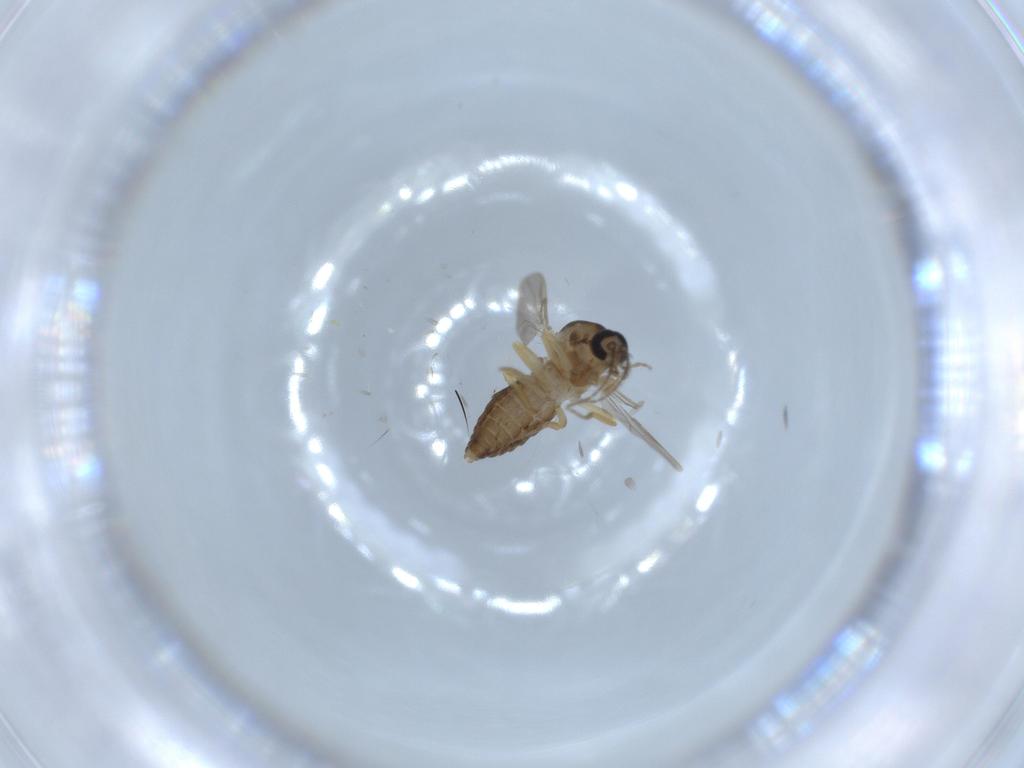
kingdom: Animalia
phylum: Arthropoda
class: Insecta
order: Diptera
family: Ceratopogonidae
